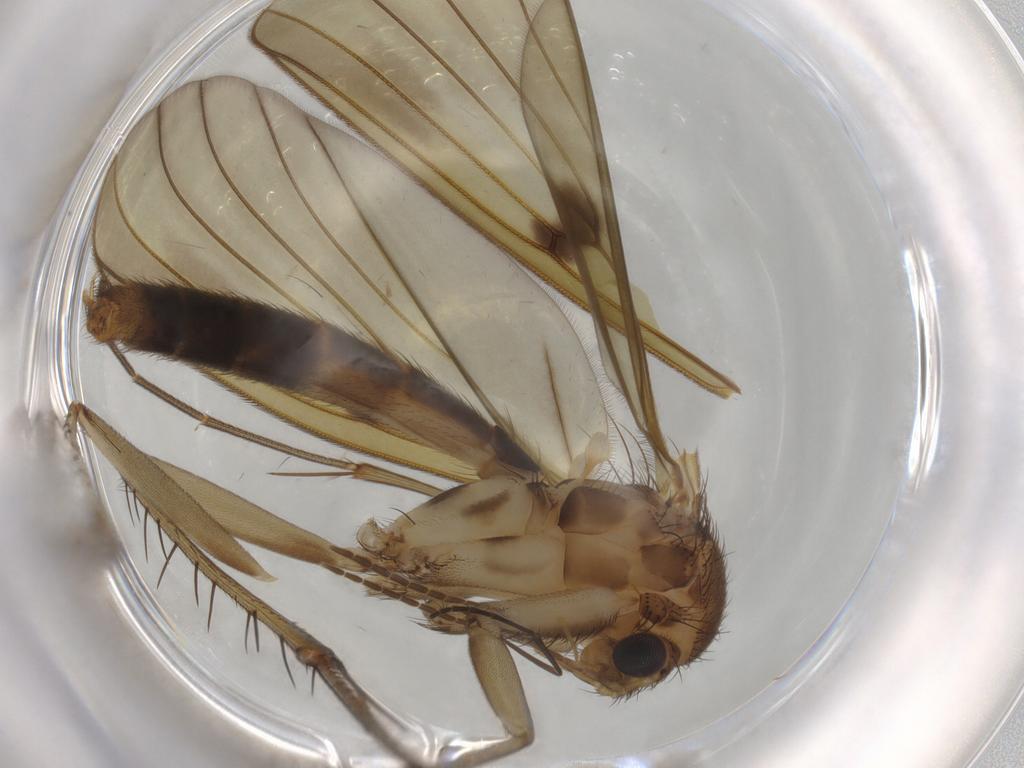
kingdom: Animalia
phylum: Arthropoda
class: Insecta
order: Diptera
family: Mycetophilidae
